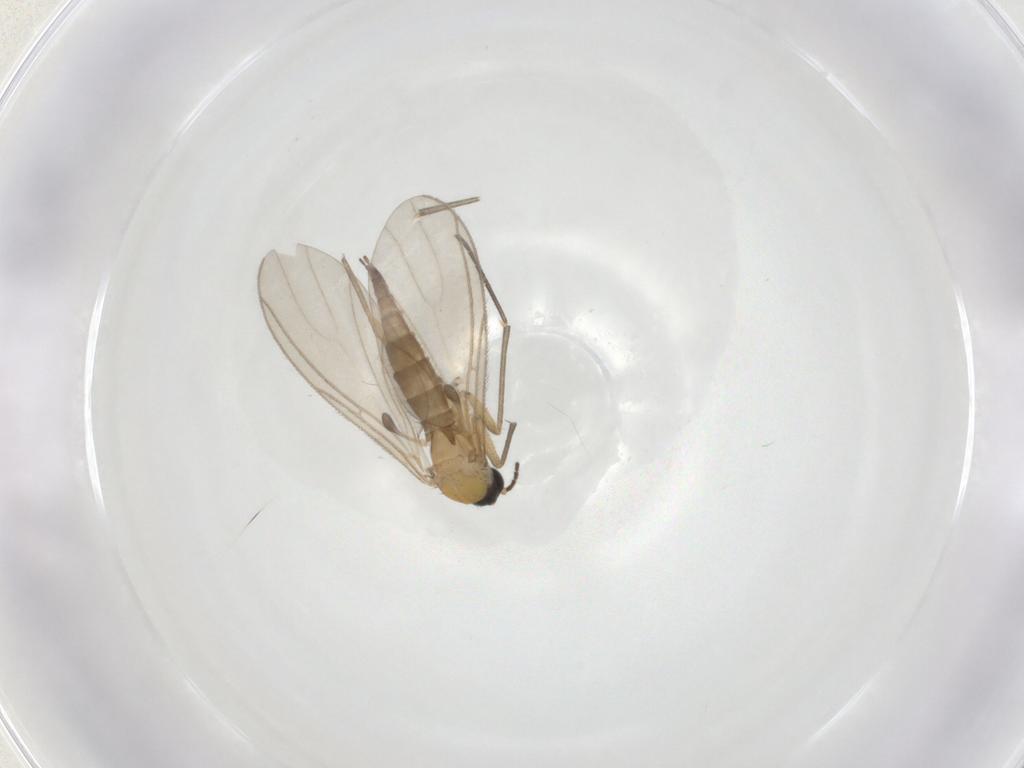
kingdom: Animalia
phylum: Arthropoda
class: Insecta
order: Diptera
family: Sciaridae
